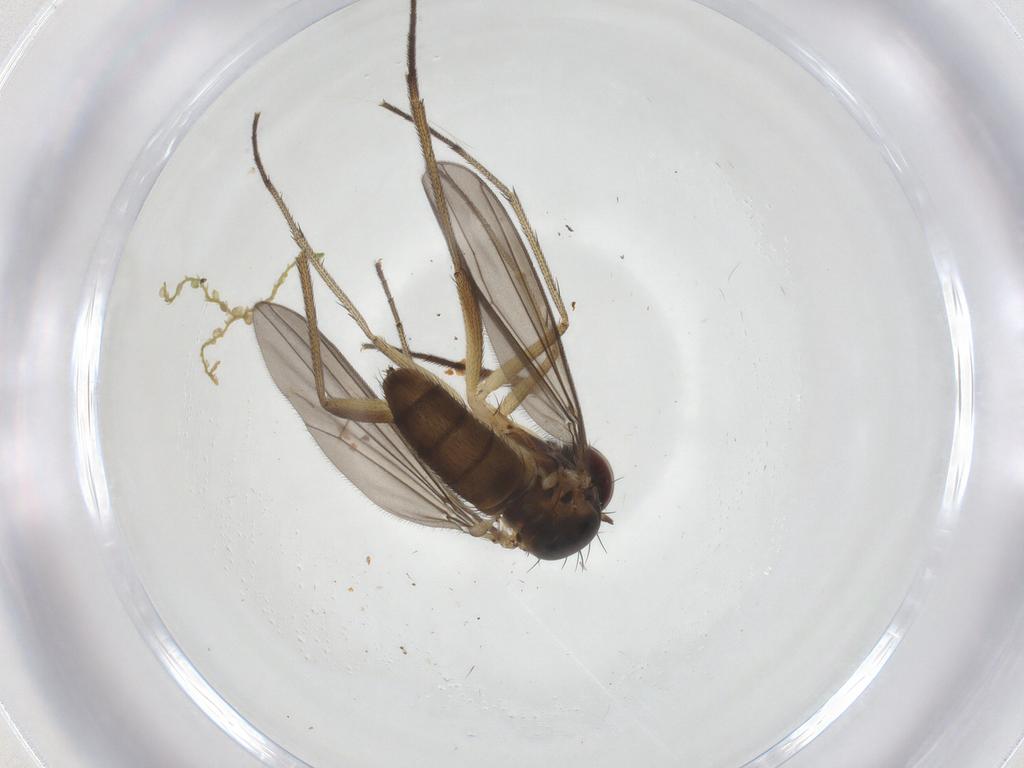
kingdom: Animalia
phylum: Arthropoda
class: Insecta
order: Diptera
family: Dolichopodidae
